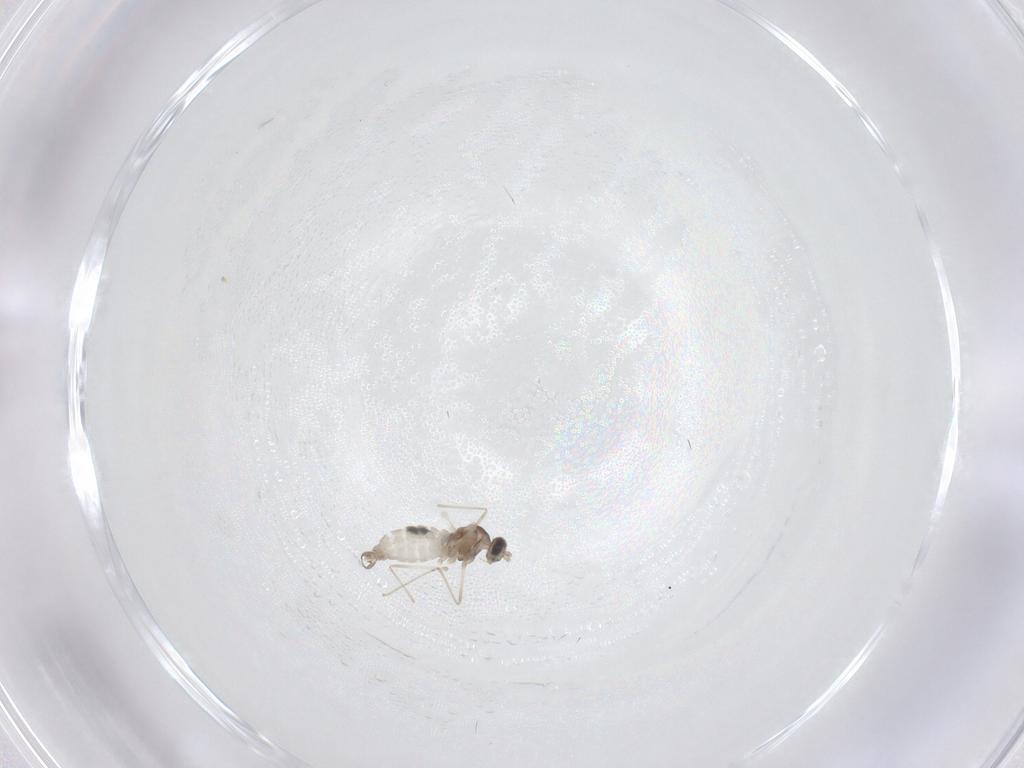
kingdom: Animalia
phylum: Arthropoda
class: Insecta
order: Diptera
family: Cecidomyiidae
